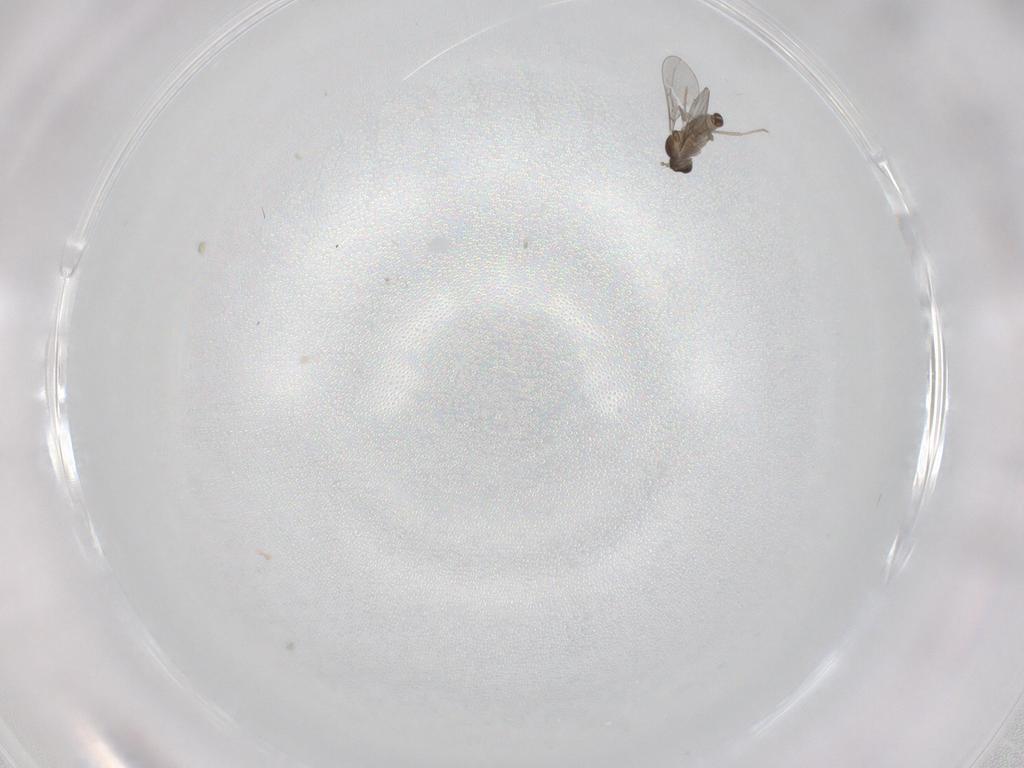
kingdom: Animalia
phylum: Arthropoda
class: Insecta
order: Diptera
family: Cecidomyiidae
